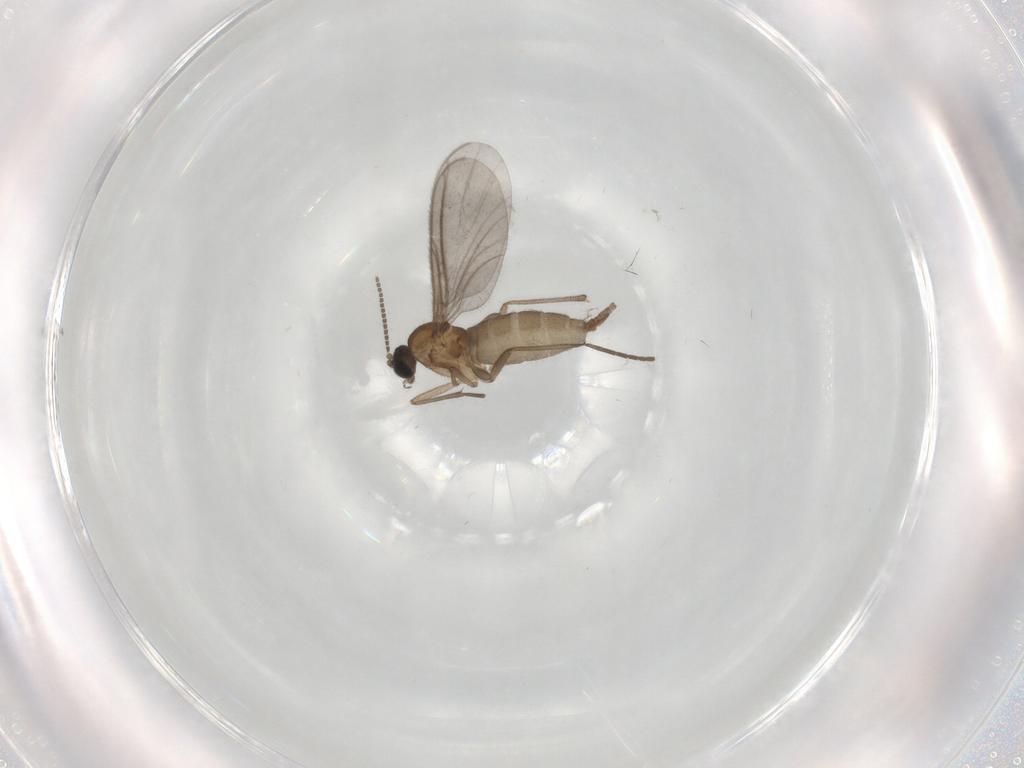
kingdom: Animalia
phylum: Arthropoda
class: Insecta
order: Diptera
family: Sciaridae
